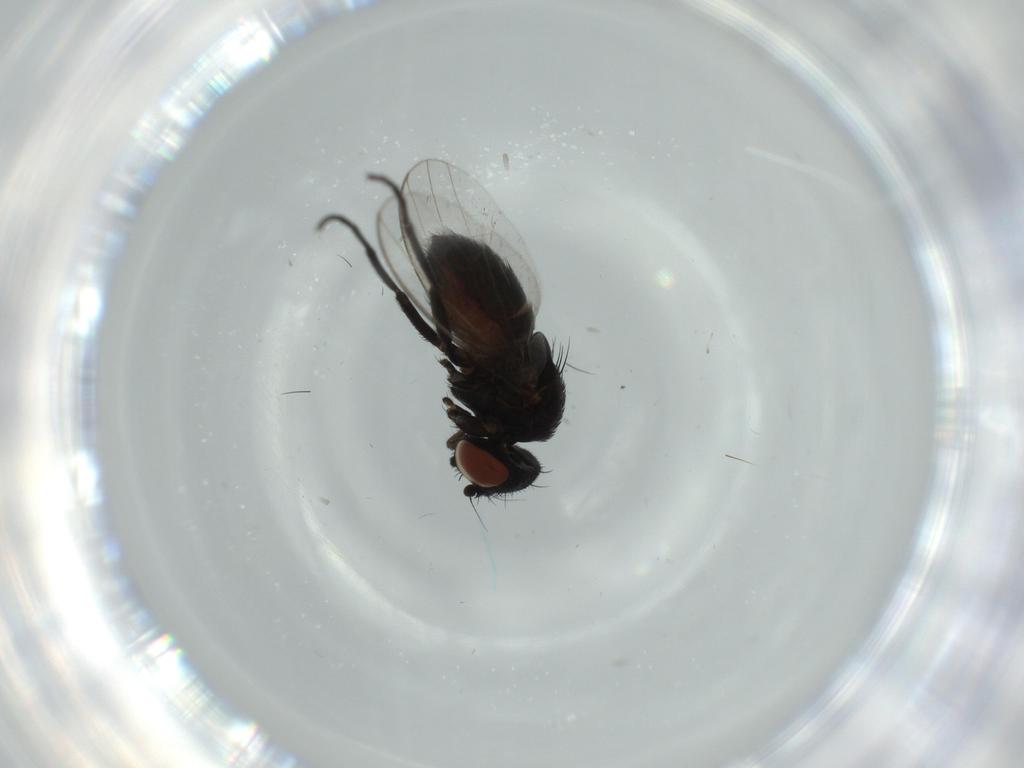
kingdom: Animalia
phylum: Arthropoda
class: Insecta
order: Diptera
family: Milichiidae
